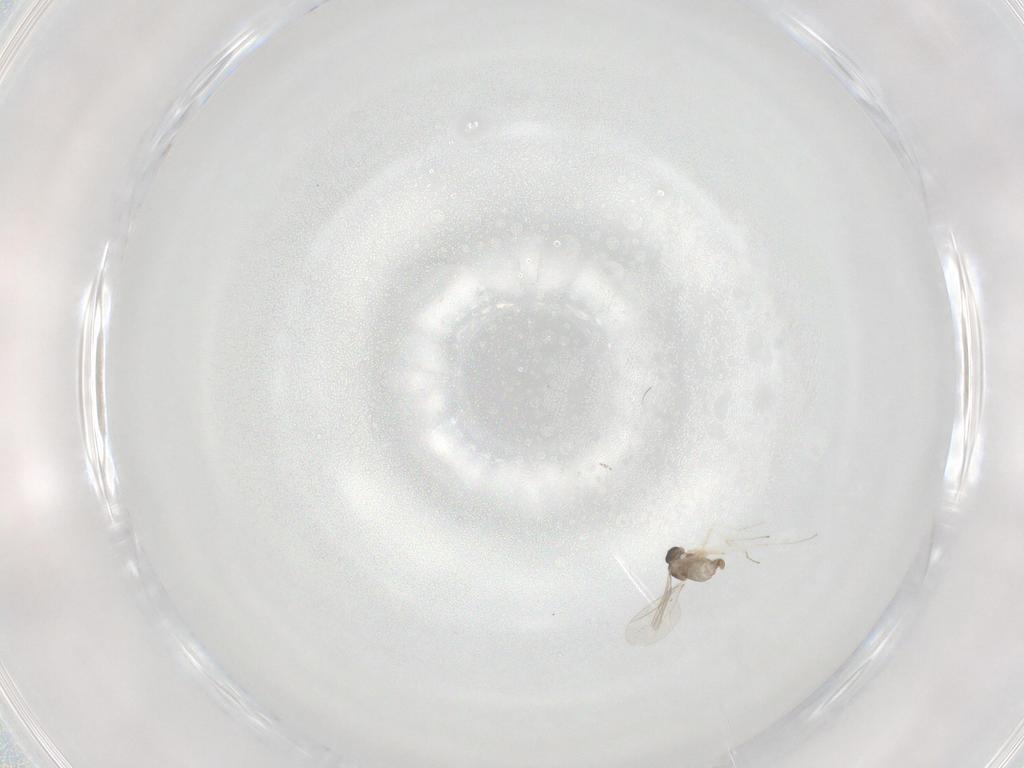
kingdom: Animalia
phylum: Arthropoda
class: Insecta
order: Diptera
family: Cecidomyiidae
